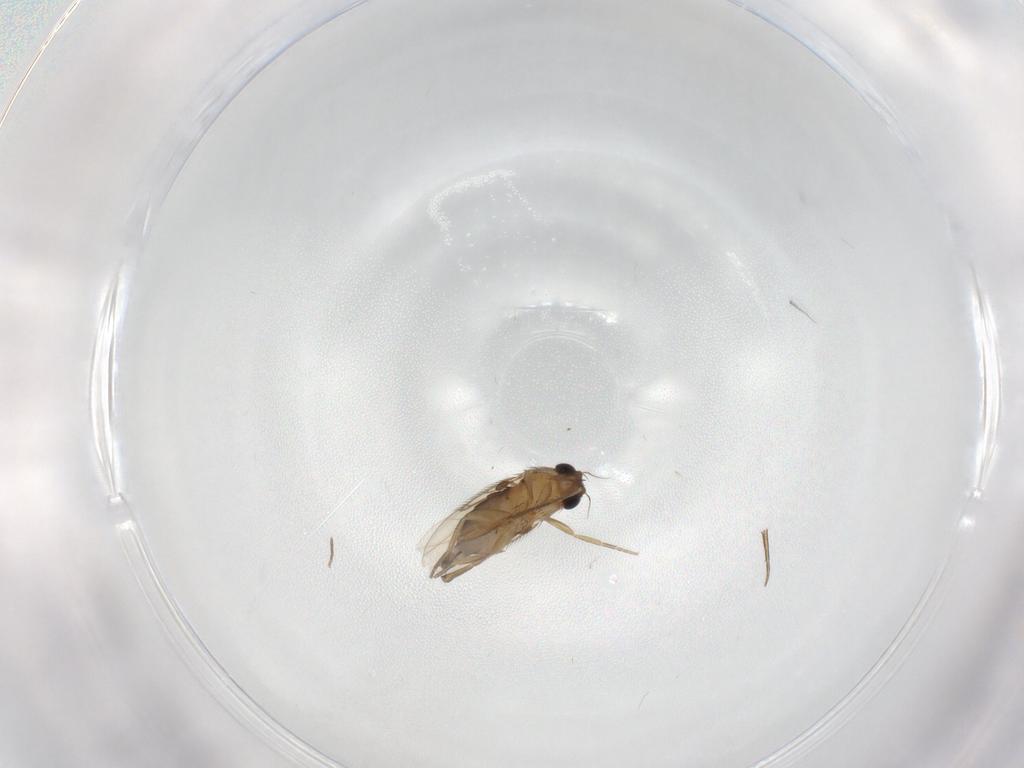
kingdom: Animalia
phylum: Arthropoda
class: Insecta
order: Diptera
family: Phoridae
